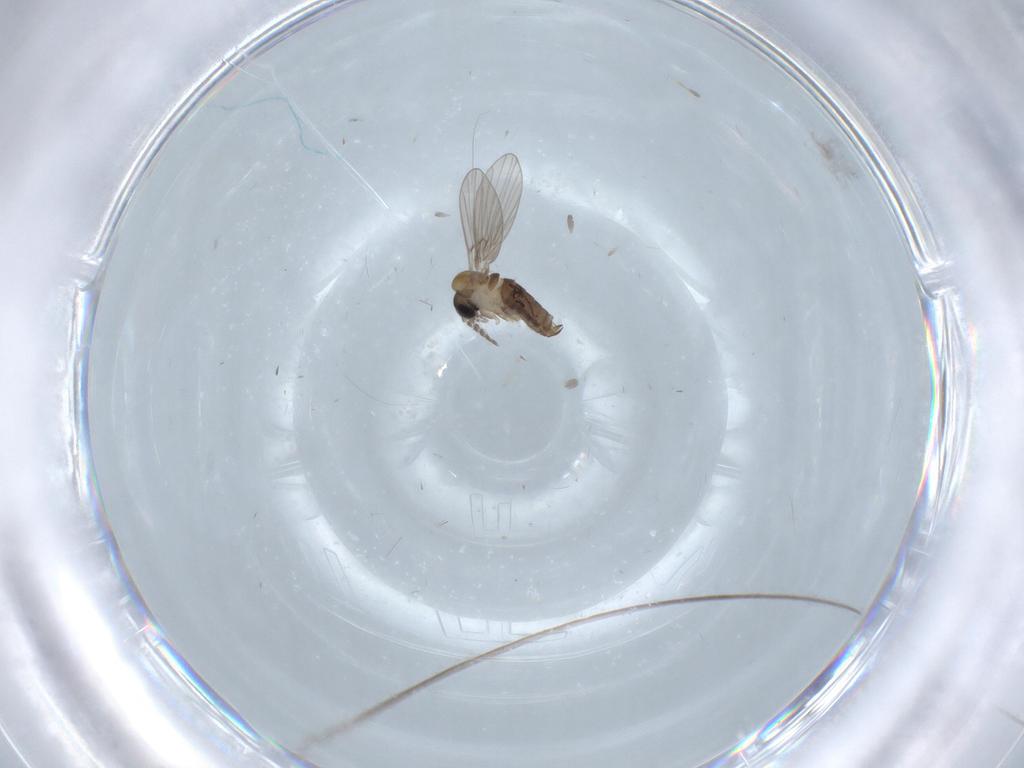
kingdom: Animalia
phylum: Arthropoda
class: Insecta
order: Diptera
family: Psychodidae
